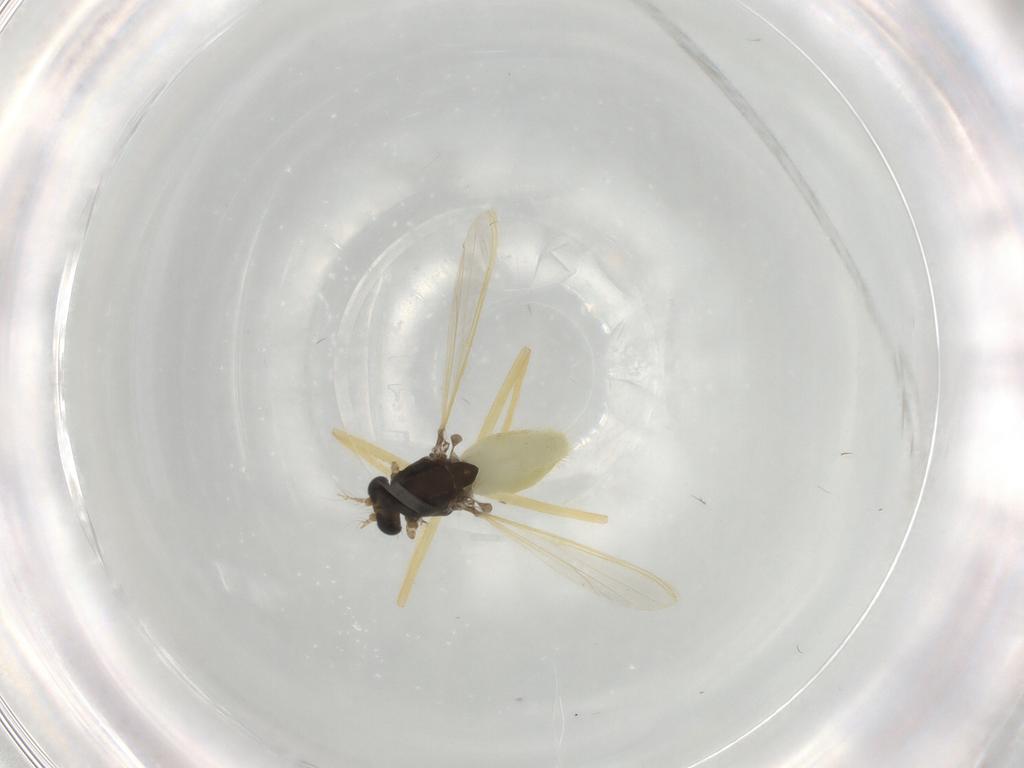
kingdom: Animalia
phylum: Arthropoda
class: Insecta
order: Diptera
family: Chironomidae
